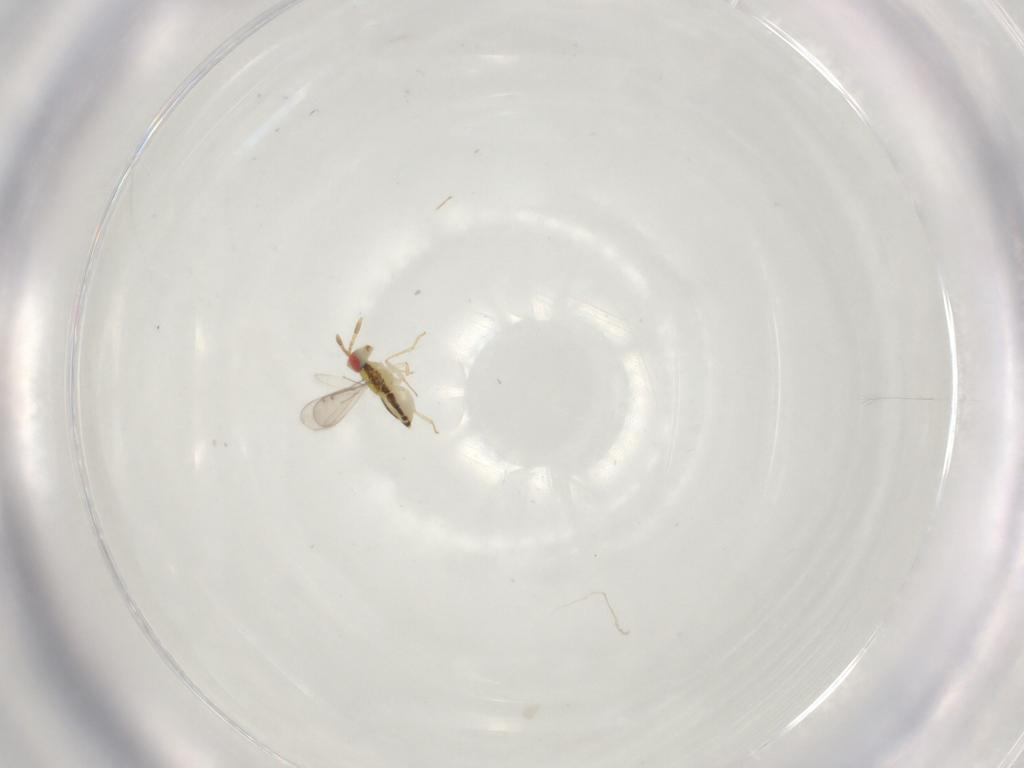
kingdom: Animalia
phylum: Arthropoda
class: Insecta
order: Hymenoptera
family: Aphelinidae
